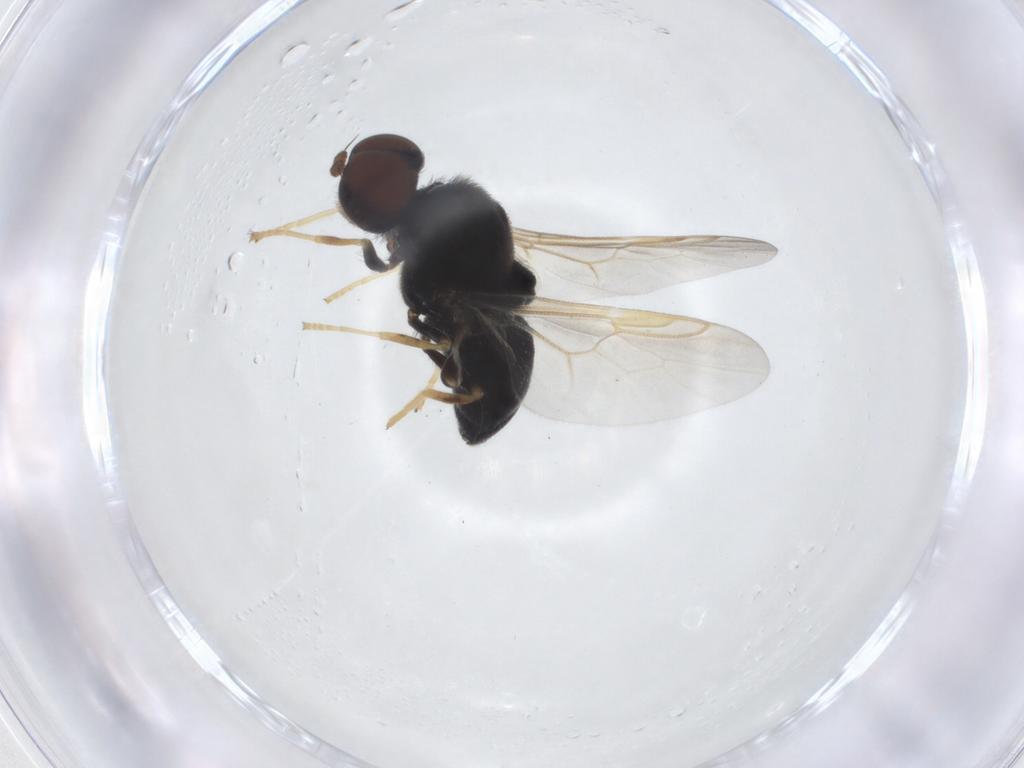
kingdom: Animalia
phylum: Arthropoda
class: Insecta
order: Diptera
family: Stratiomyidae
